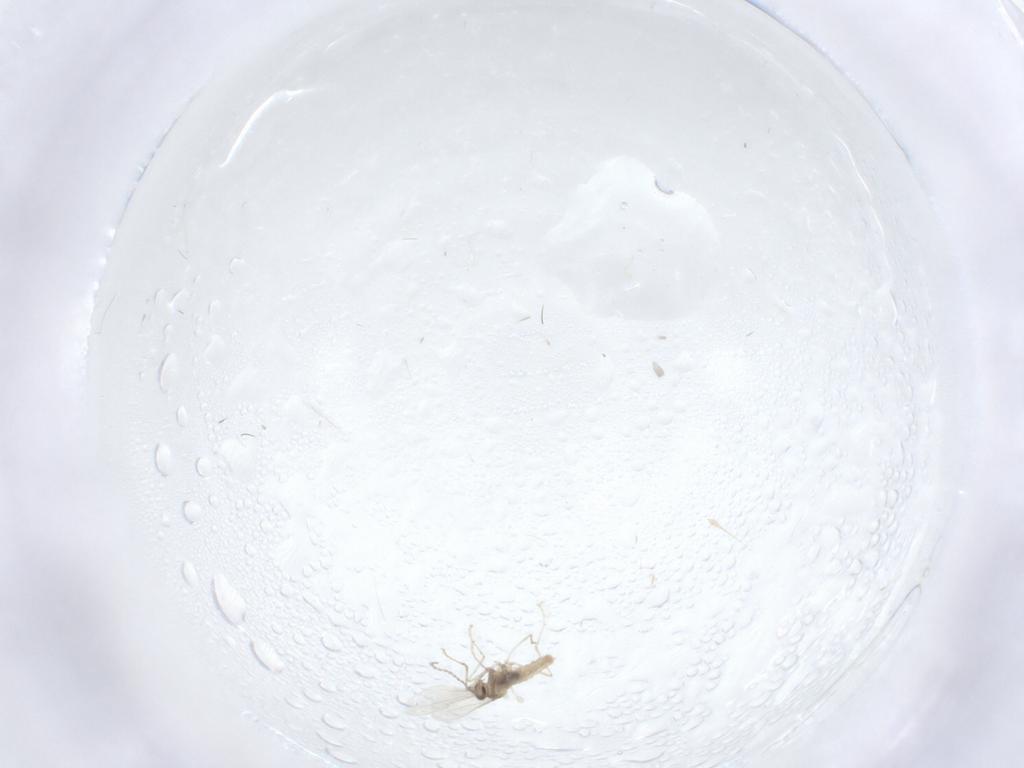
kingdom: Animalia
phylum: Arthropoda
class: Insecta
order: Diptera
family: Cecidomyiidae
